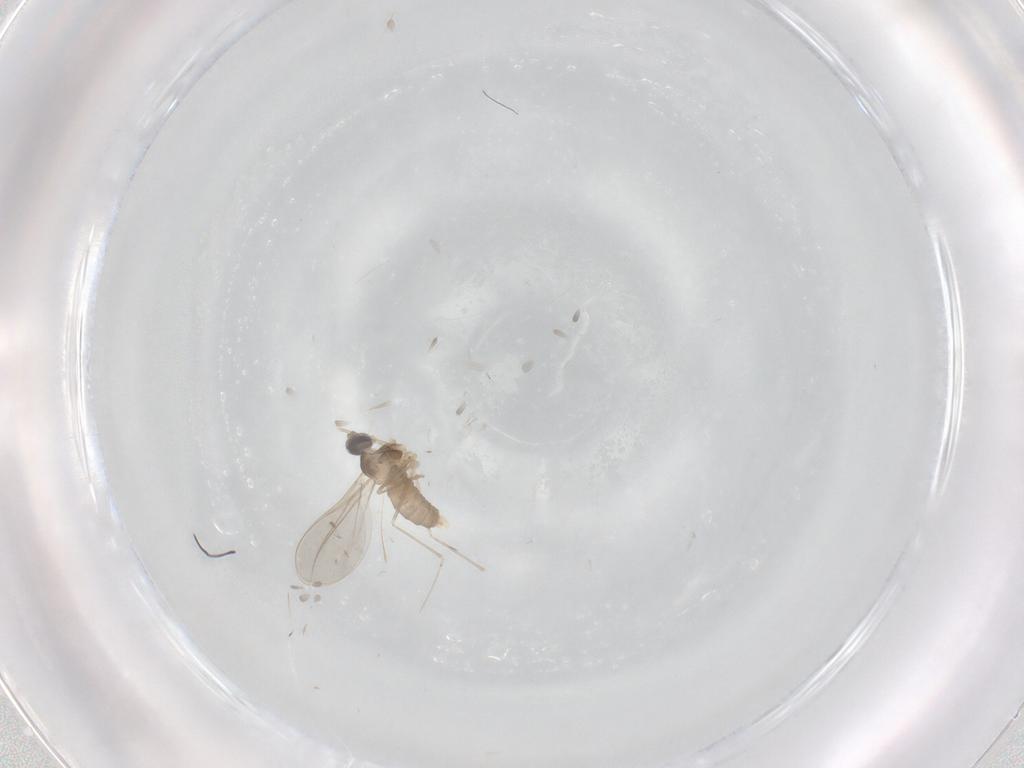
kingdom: Animalia
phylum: Arthropoda
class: Insecta
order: Diptera
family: Cecidomyiidae
